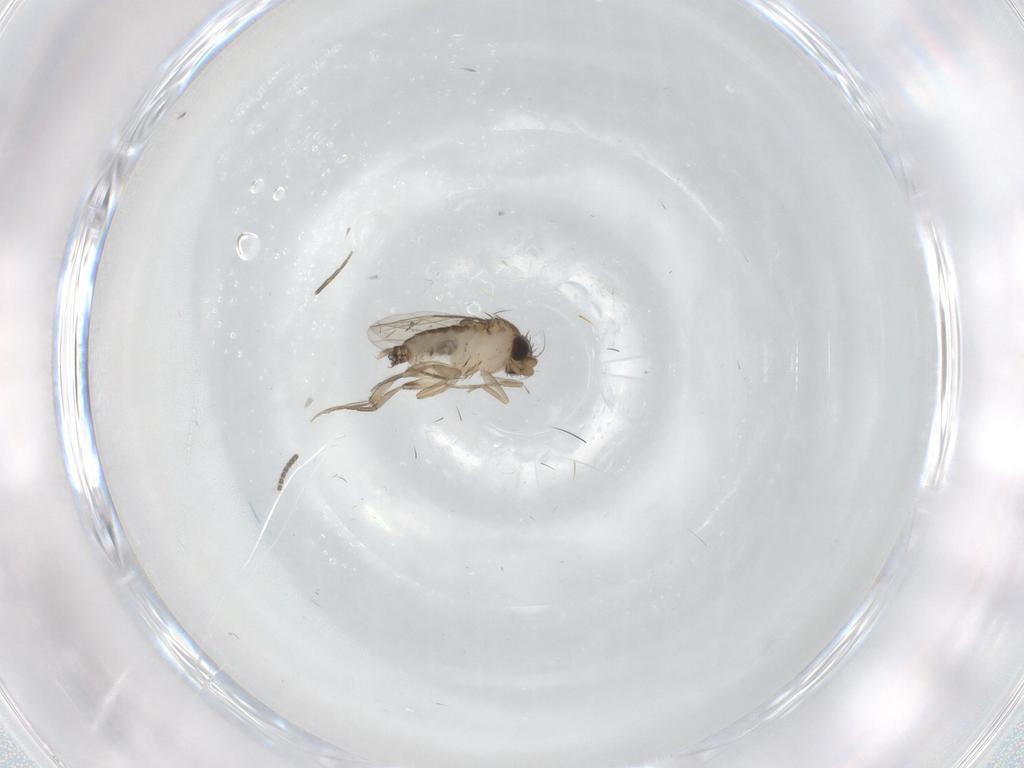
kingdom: Animalia
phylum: Arthropoda
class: Insecta
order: Diptera
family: Phoridae
